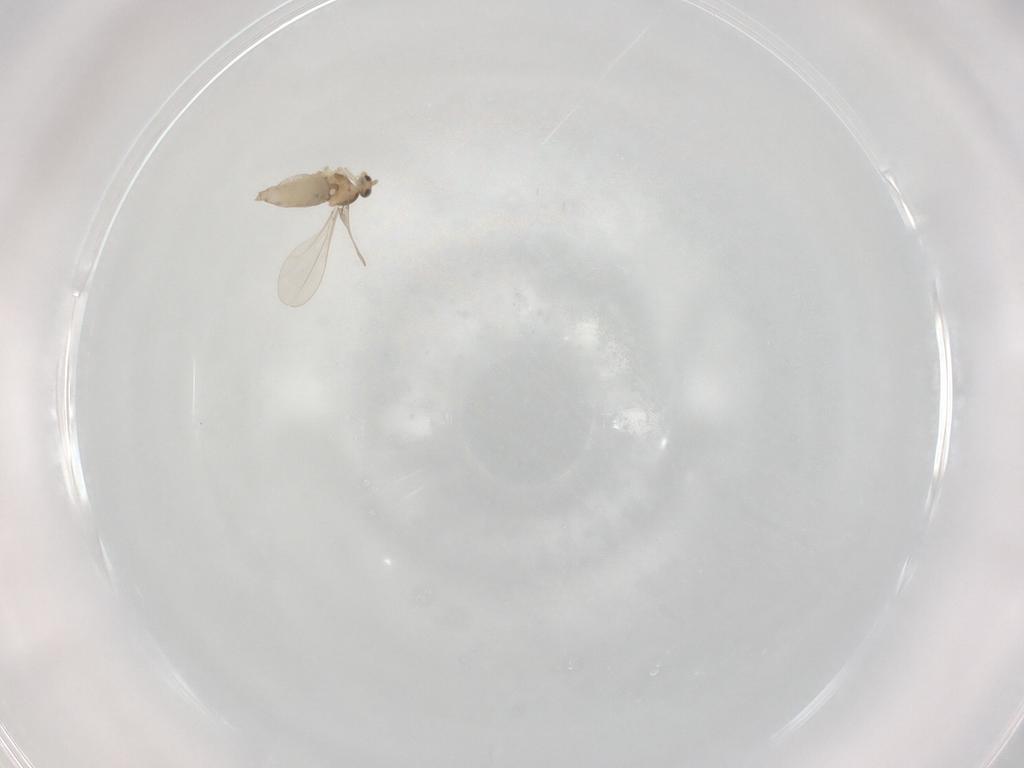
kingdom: Animalia
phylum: Arthropoda
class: Insecta
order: Diptera
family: Cecidomyiidae
